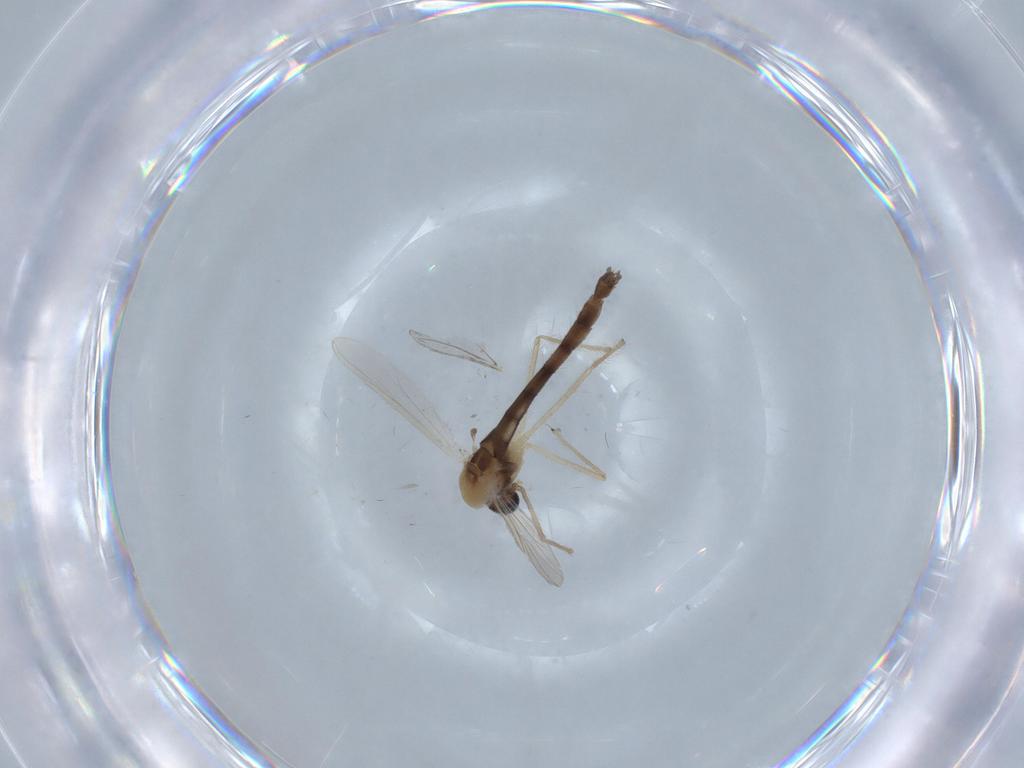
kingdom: Animalia
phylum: Arthropoda
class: Insecta
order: Diptera
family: Chironomidae
